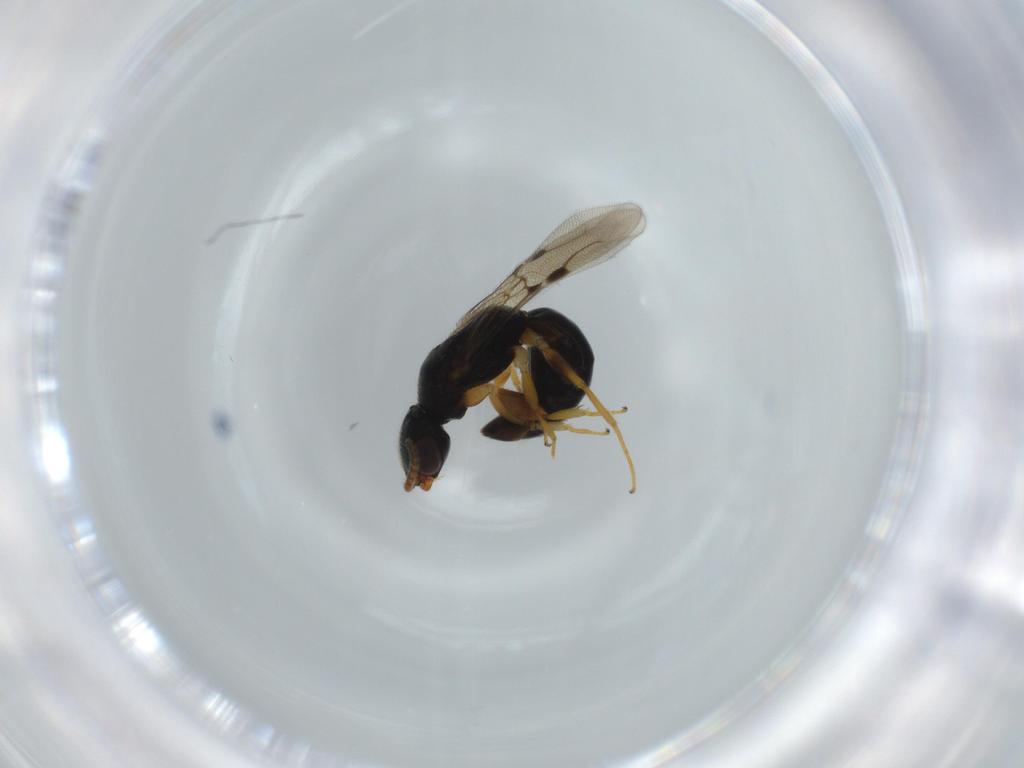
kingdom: Animalia
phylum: Arthropoda
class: Insecta
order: Hymenoptera
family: Bethylidae
